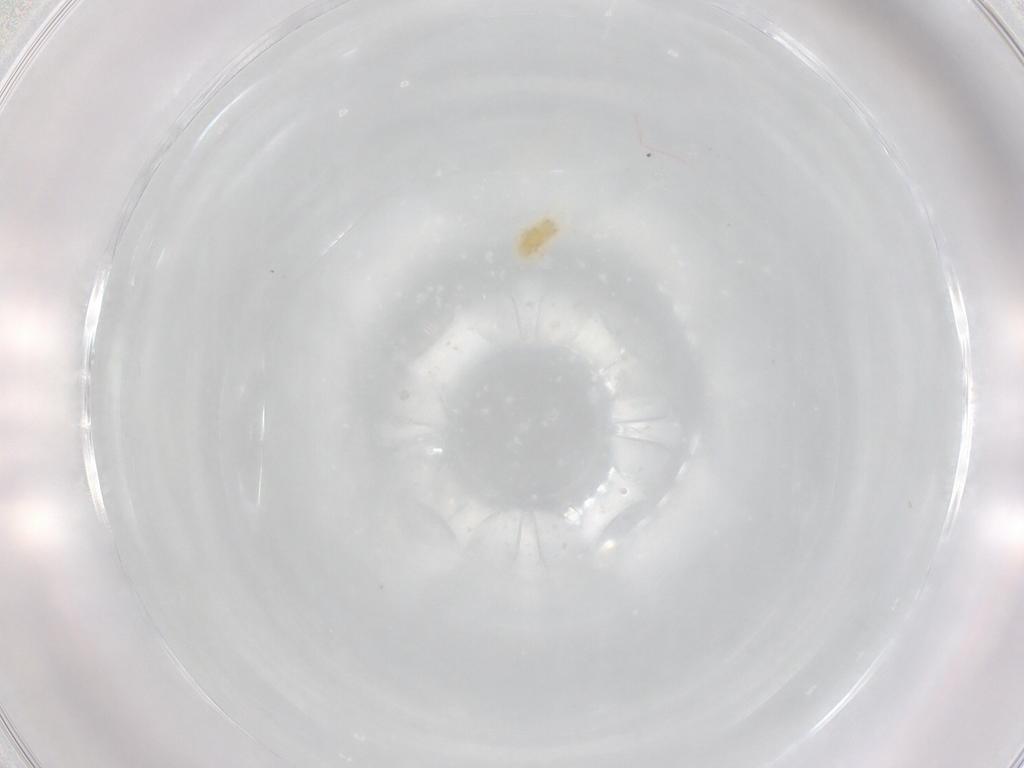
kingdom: Animalia
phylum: Arthropoda
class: Arachnida
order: Trombidiformes
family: Eupodidae
